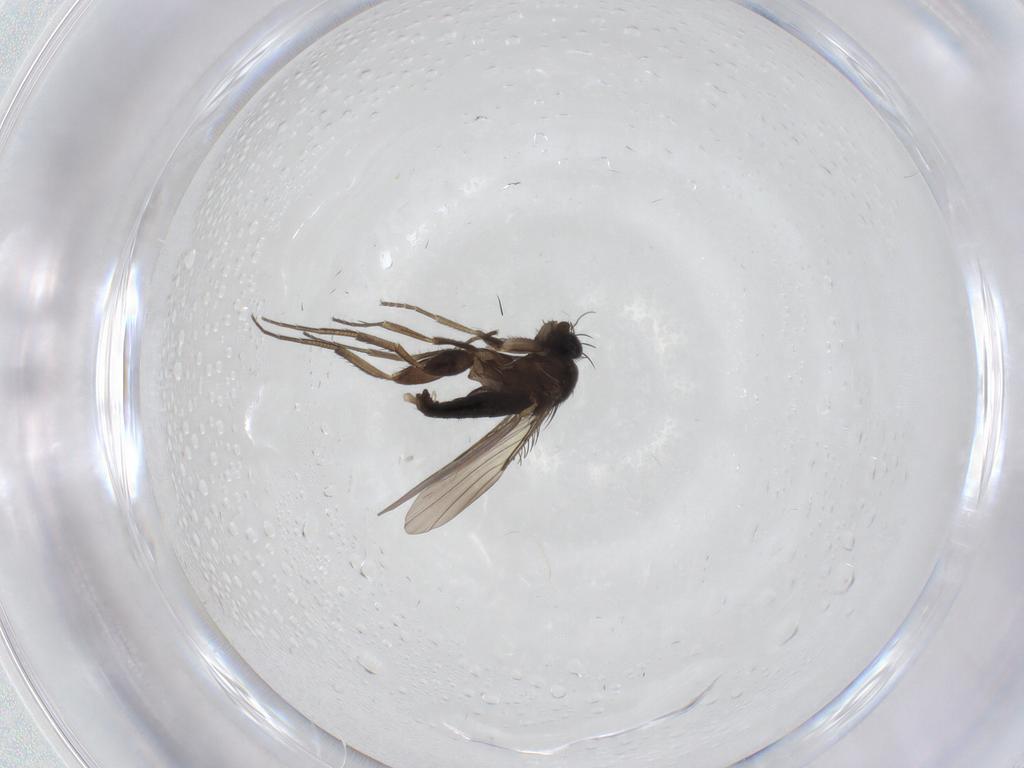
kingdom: Animalia
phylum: Arthropoda
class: Insecta
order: Diptera
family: Phoridae
